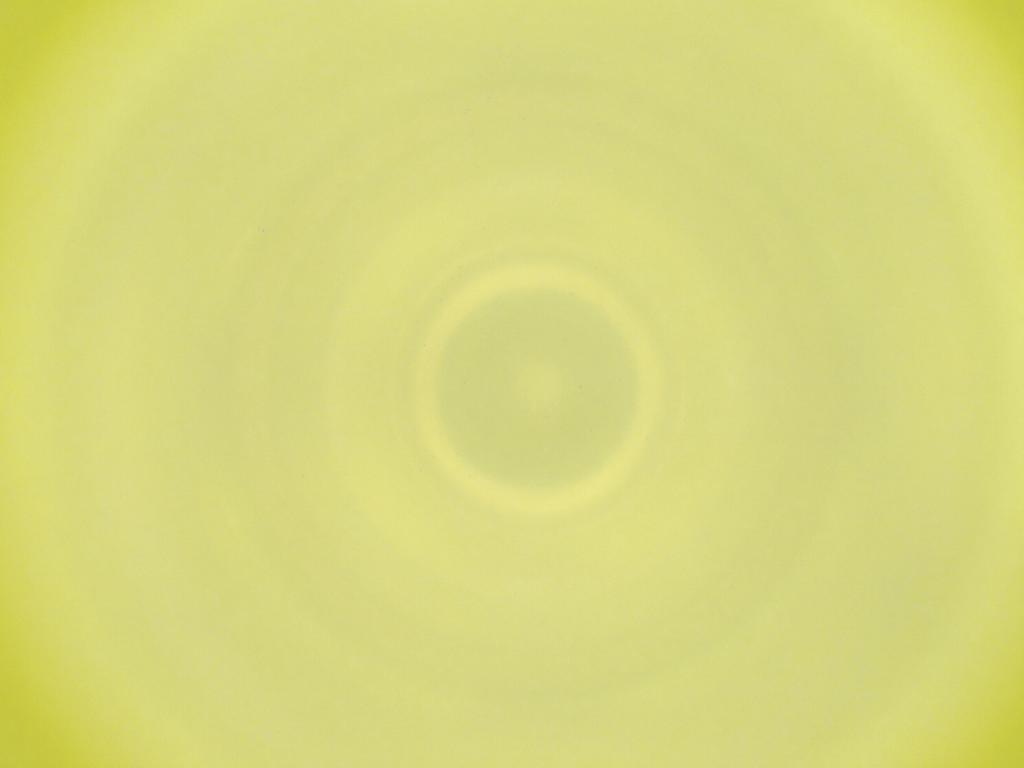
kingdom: Animalia
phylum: Arthropoda
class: Insecta
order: Diptera
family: Cecidomyiidae
